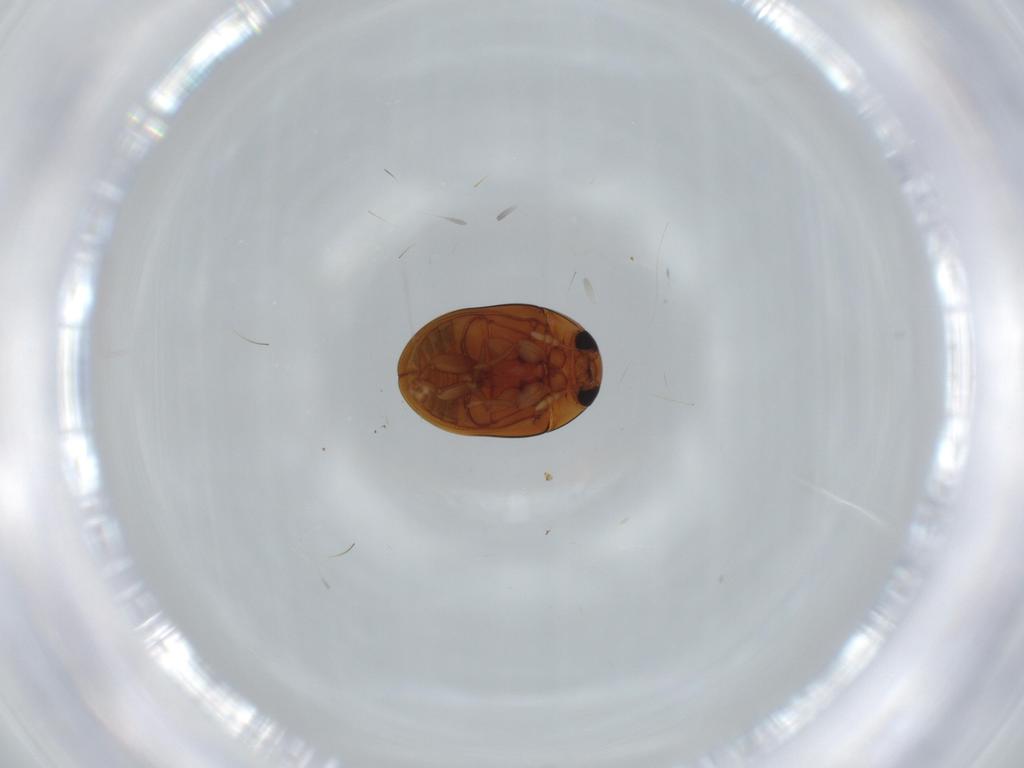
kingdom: Animalia
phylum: Arthropoda
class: Insecta
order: Coleoptera
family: Phalacridae
